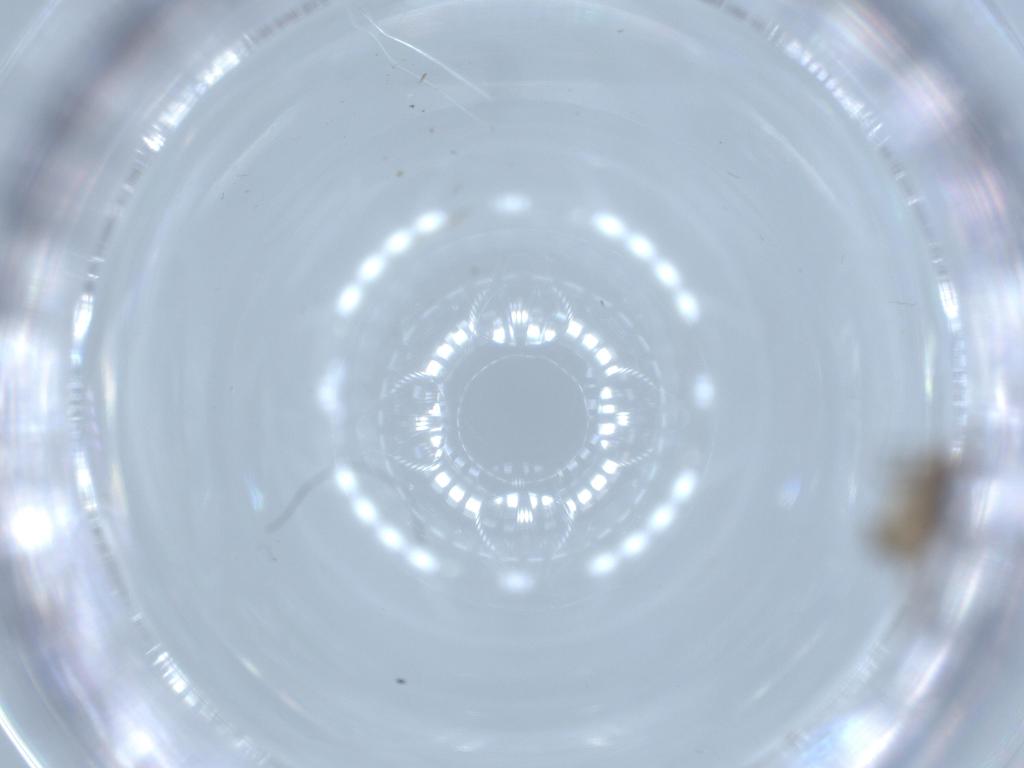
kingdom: Animalia
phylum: Arthropoda
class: Insecta
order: Diptera
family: Chironomidae
